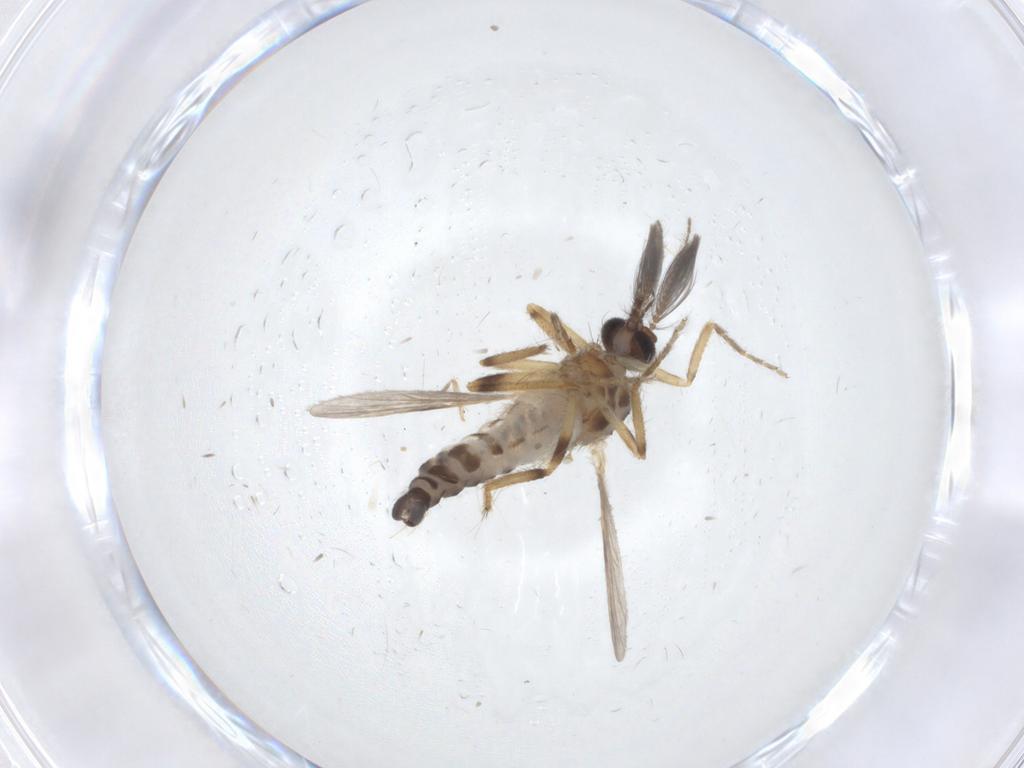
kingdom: Animalia
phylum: Arthropoda
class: Insecta
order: Diptera
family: Ceratopogonidae
